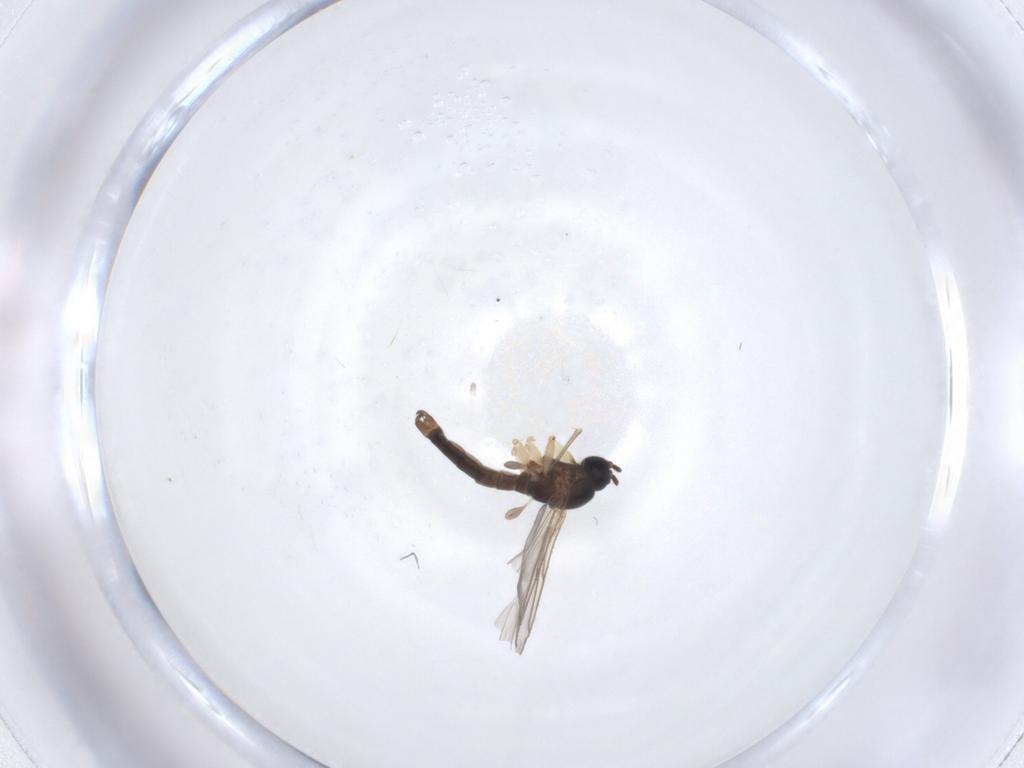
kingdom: Animalia
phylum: Arthropoda
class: Insecta
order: Diptera
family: Sciaridae
